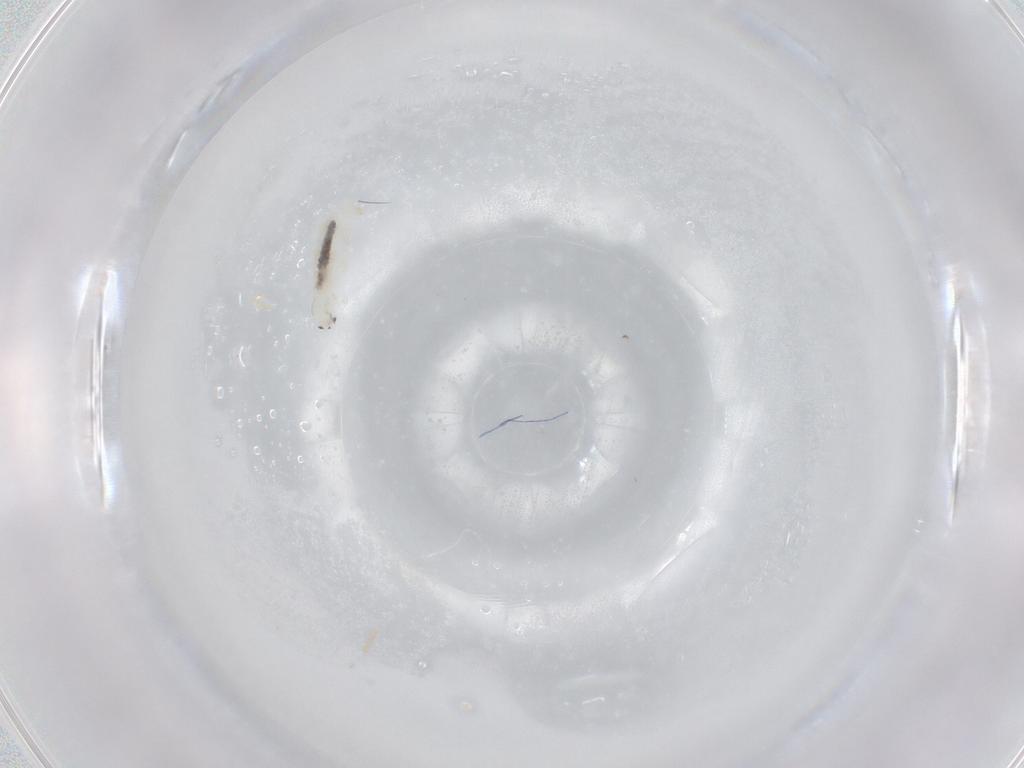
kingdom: Animalia
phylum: Arthropoda
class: Collembola
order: Entomobryomorpha
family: Entomobryidae
